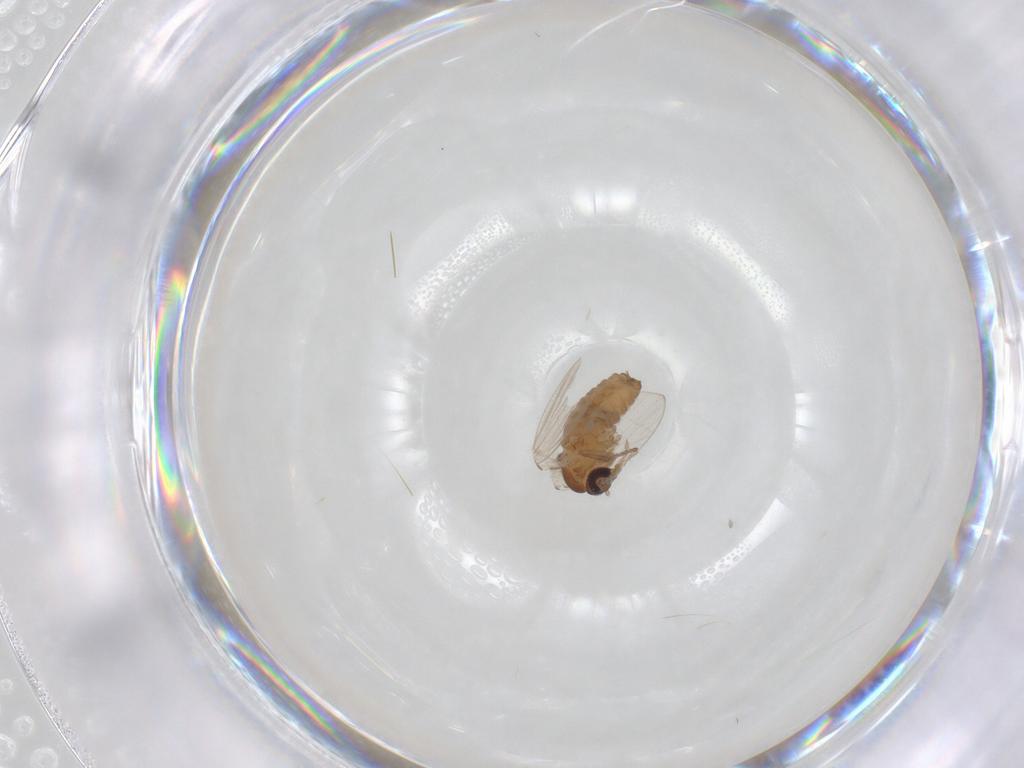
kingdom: Animalia
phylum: Arthropoda
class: Insecta
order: Diptera
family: Psychodidae
